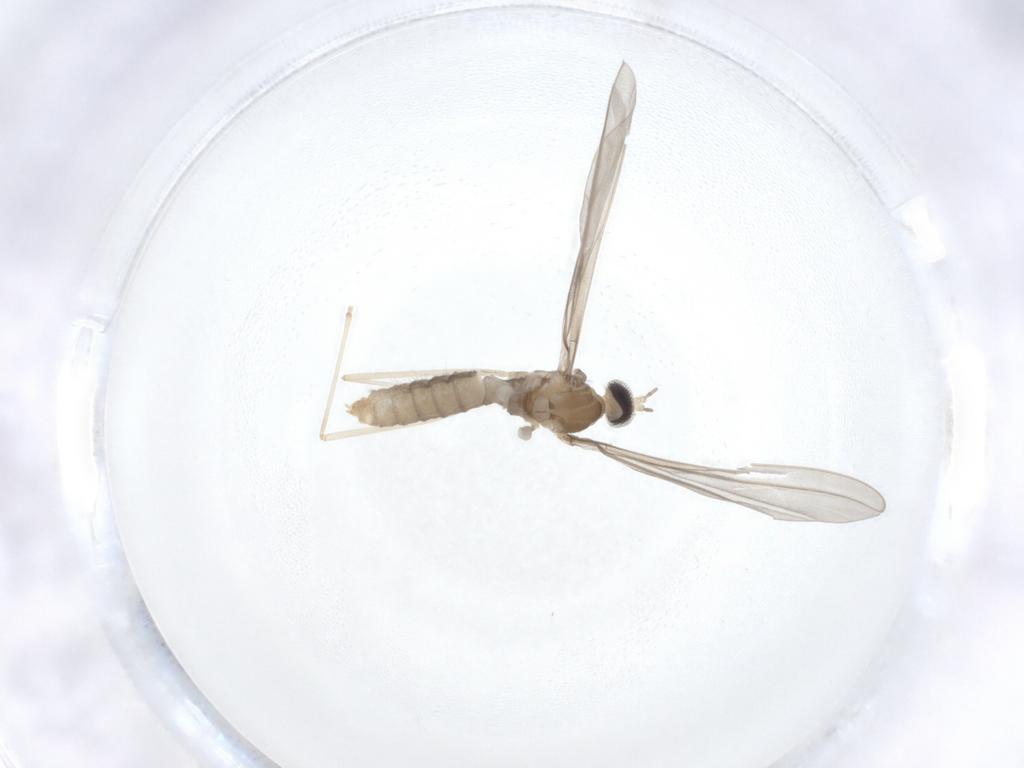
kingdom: Animalia
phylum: Arthropoda
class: Insecta
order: Diptera
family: Cecidomyiidae
